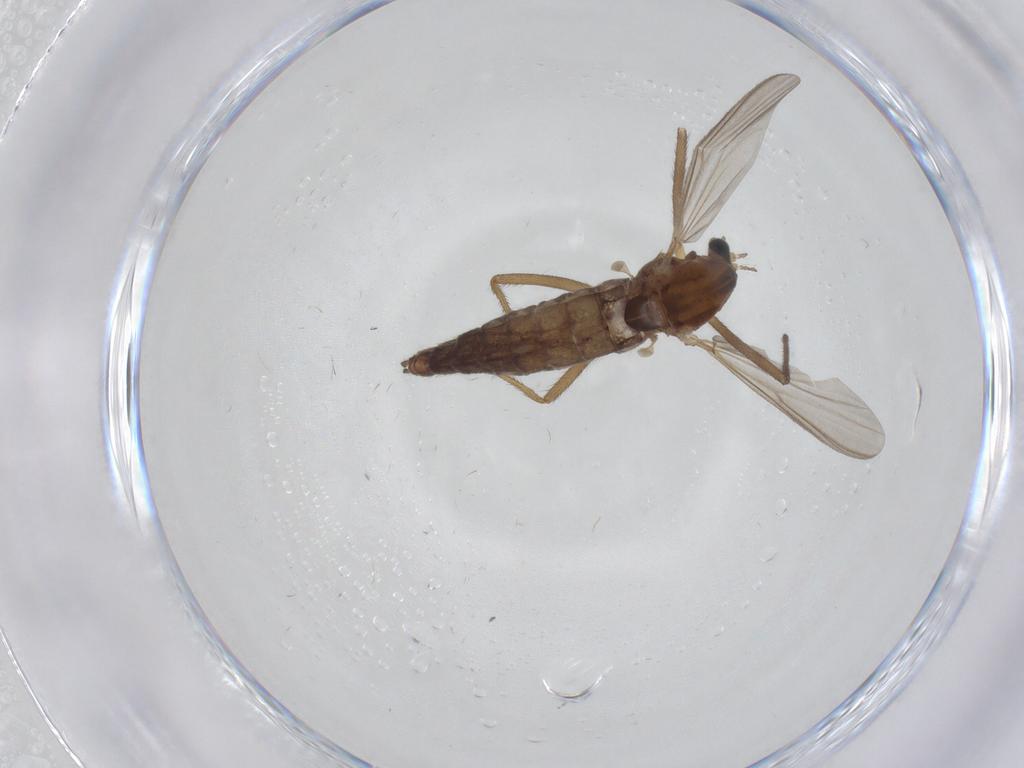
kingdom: Animalia
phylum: Arthropoda
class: Insecta
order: Diptera
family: Chironomidae
